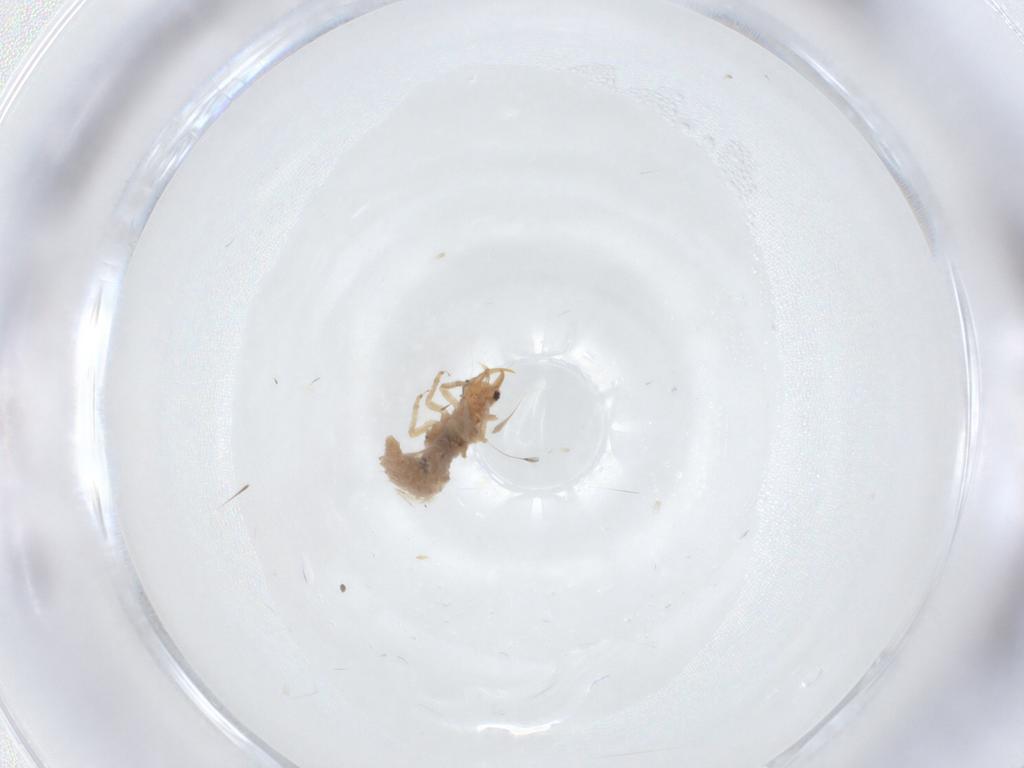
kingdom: Animalia
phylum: Arthropoda
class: Insecta
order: Neuroptera
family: Chrysopidae
